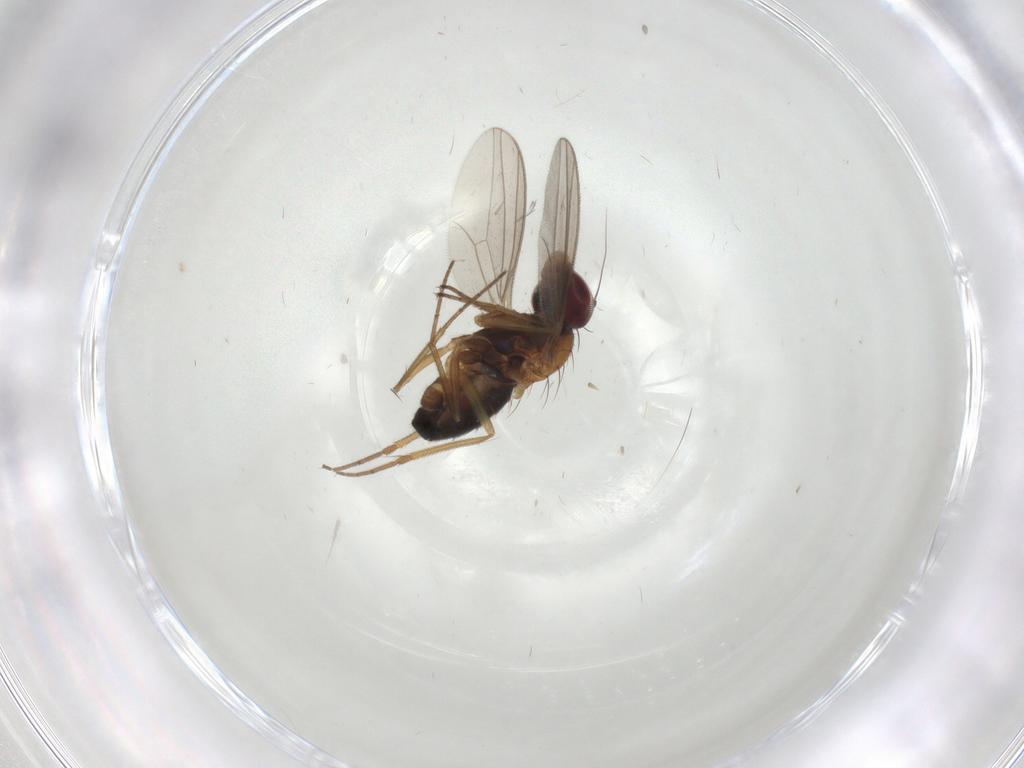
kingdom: Animalia
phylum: Arthropoda
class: Insecta
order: Diptera
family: Dolichopodidae
